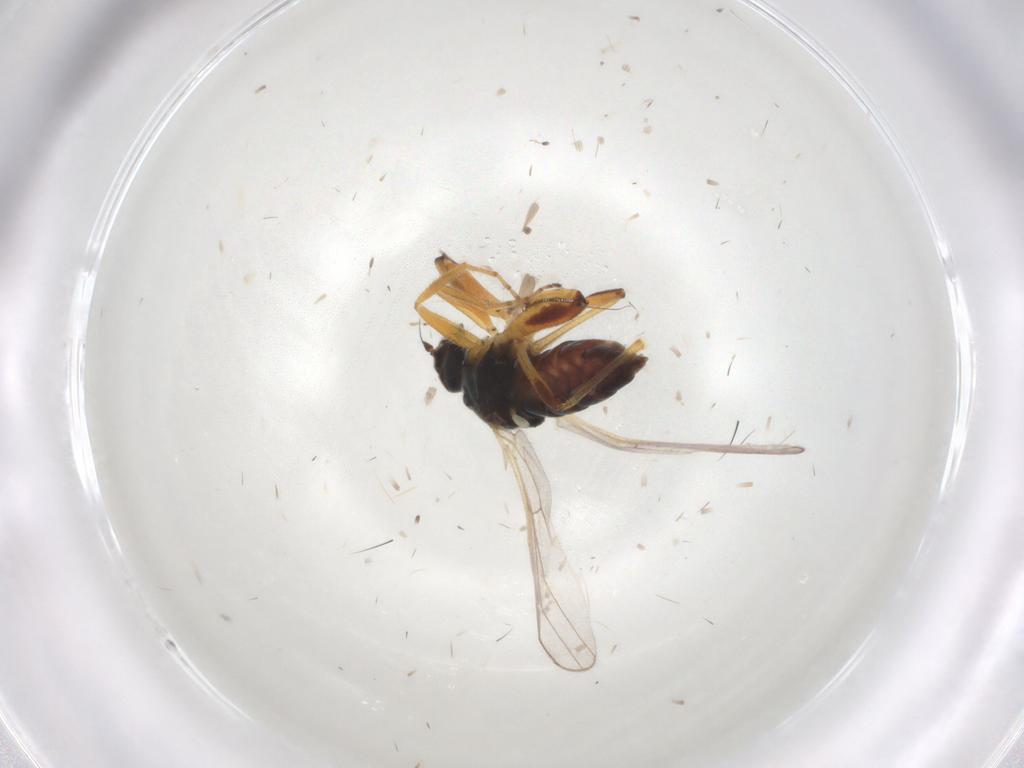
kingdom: Animalia
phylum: Arthropoda
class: Insecta
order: Diptera
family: Hybotidae
